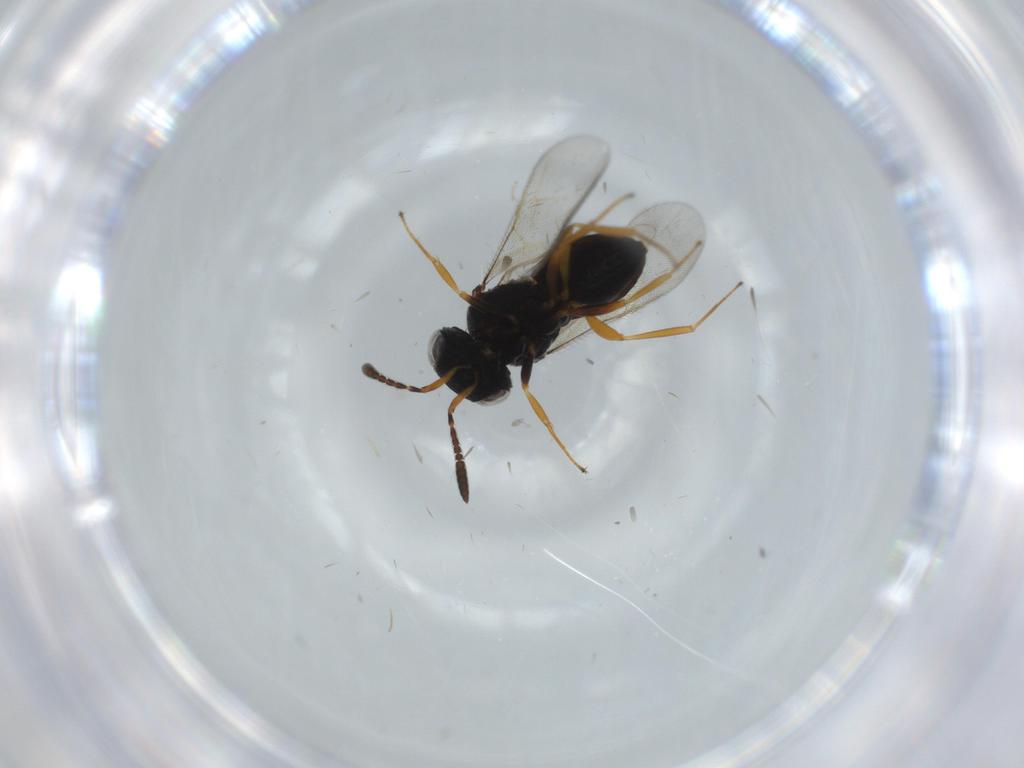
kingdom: Animalia
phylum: Arthropoda
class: Insecta
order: Hymenoptera
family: Scelionidae
